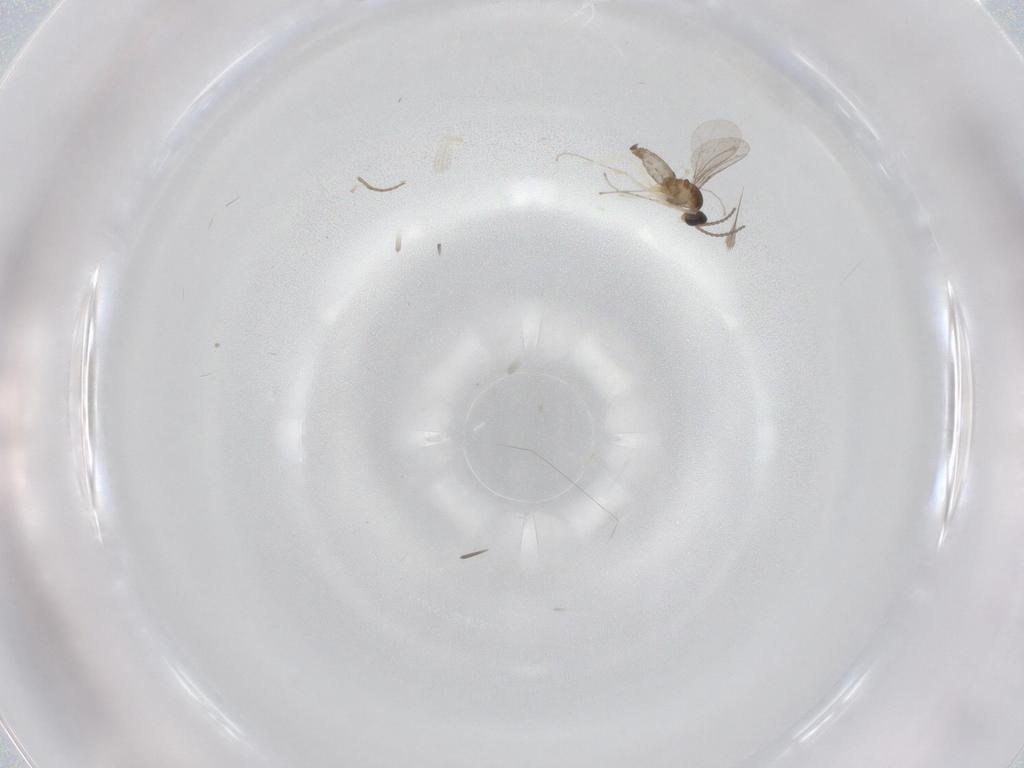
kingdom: Animalia
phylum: Arthropoda
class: Insecta
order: Diptera
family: Cecidomyiidae
